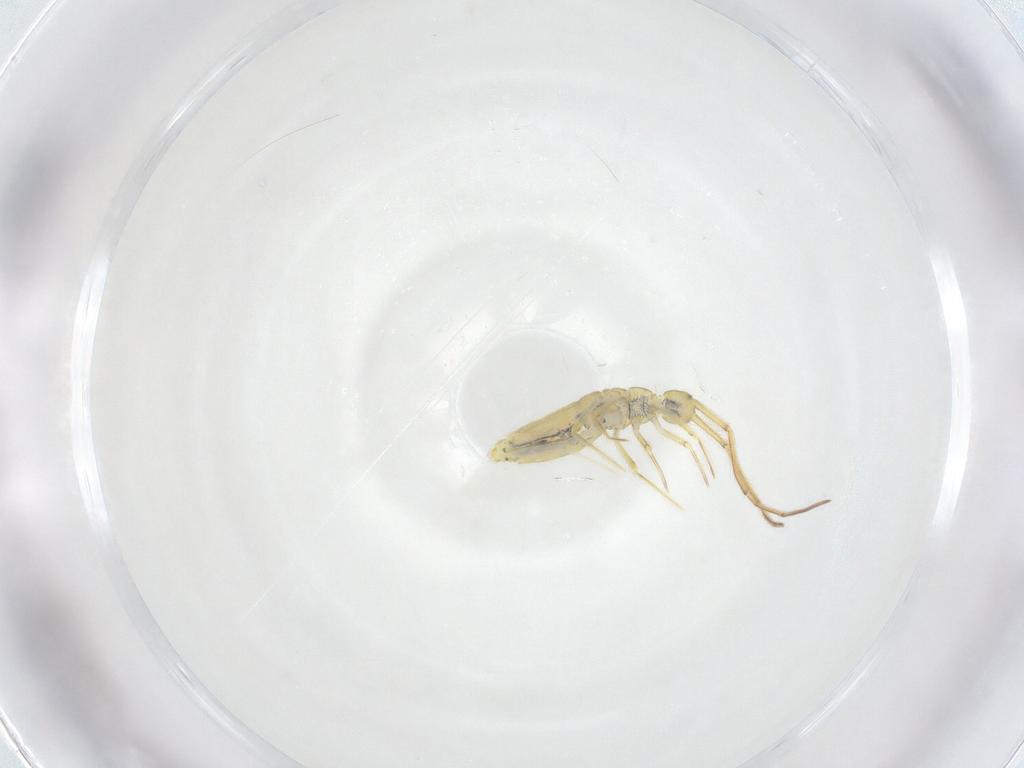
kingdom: Animalia
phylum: Arthropoda
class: Collembola
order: Entomobryomorpha
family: Paronellidae
